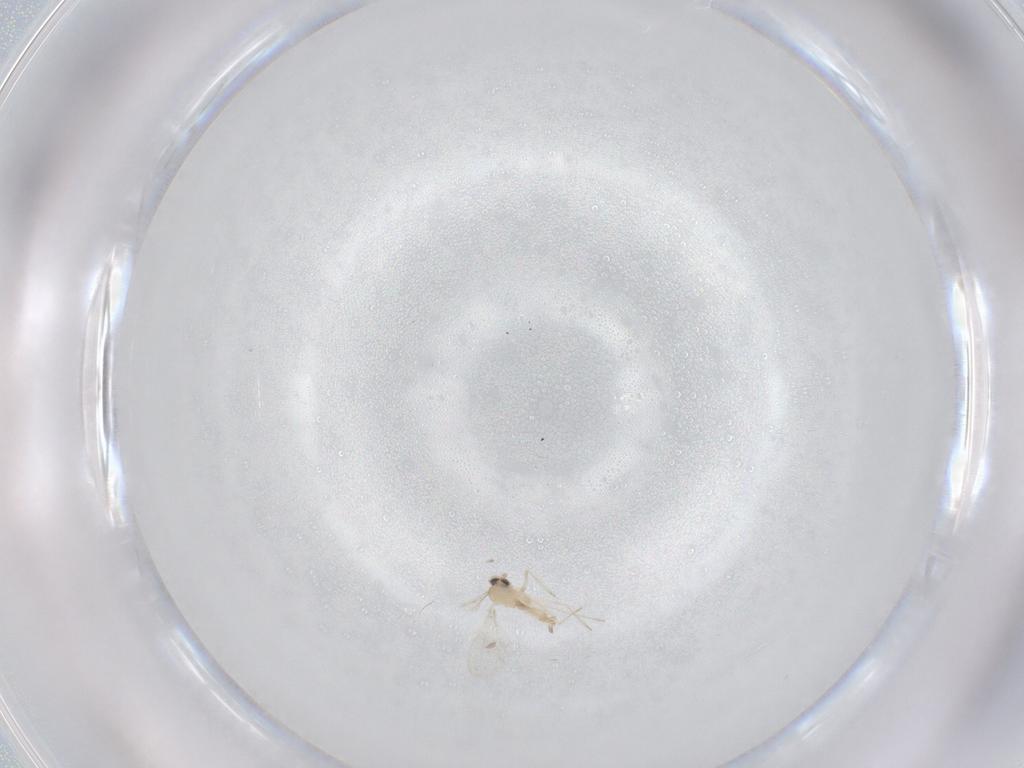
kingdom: Animalia
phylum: Arthropoda
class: Insecta
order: Diptera
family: Cecidomyiidae
